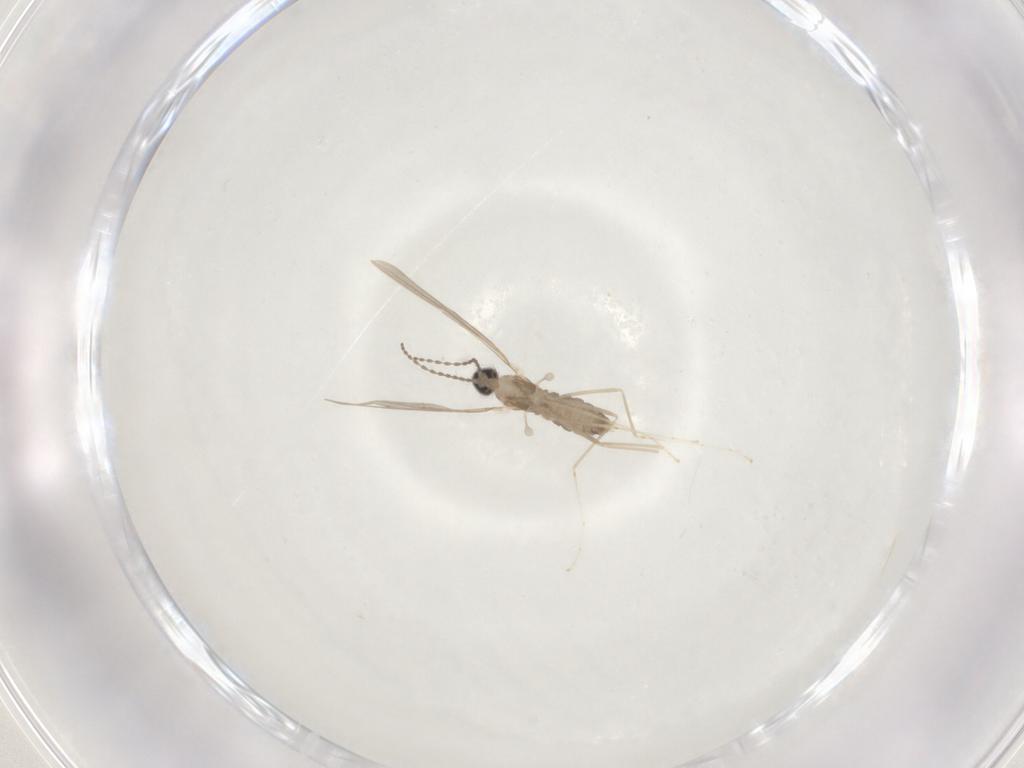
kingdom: Animalia
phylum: Arthropoda
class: Insecta
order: Diptera
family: Cecidomyiidae
